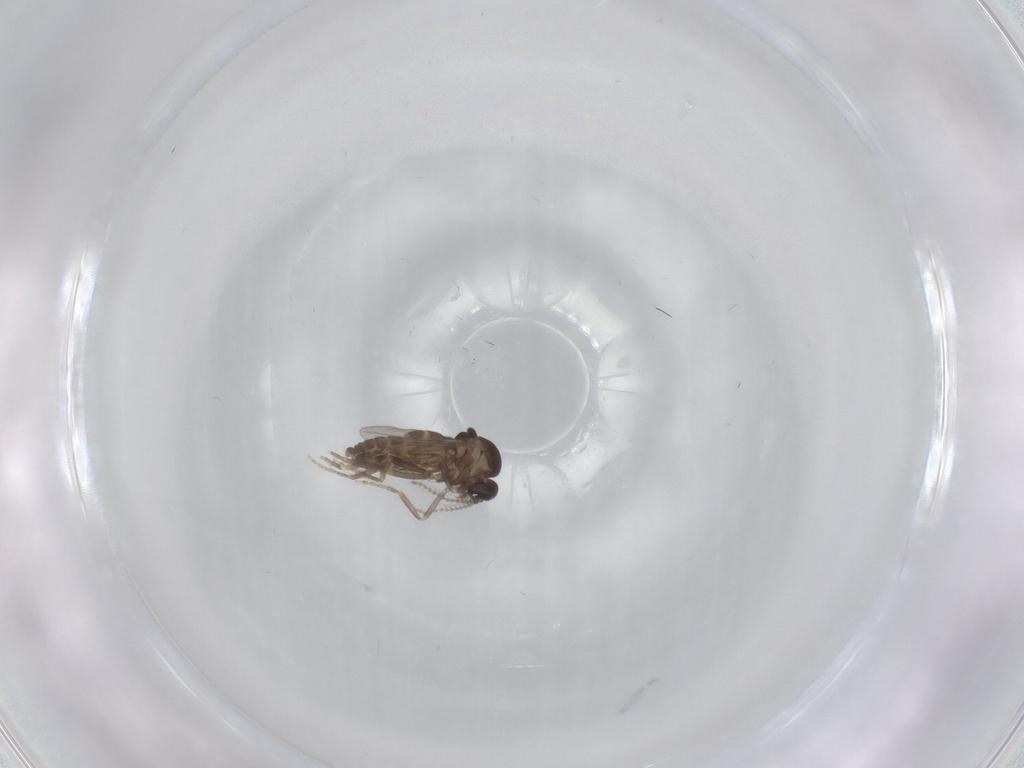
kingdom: Animalia
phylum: Arthropoda
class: Insecta
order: Diptera
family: Ceratopogonidae
